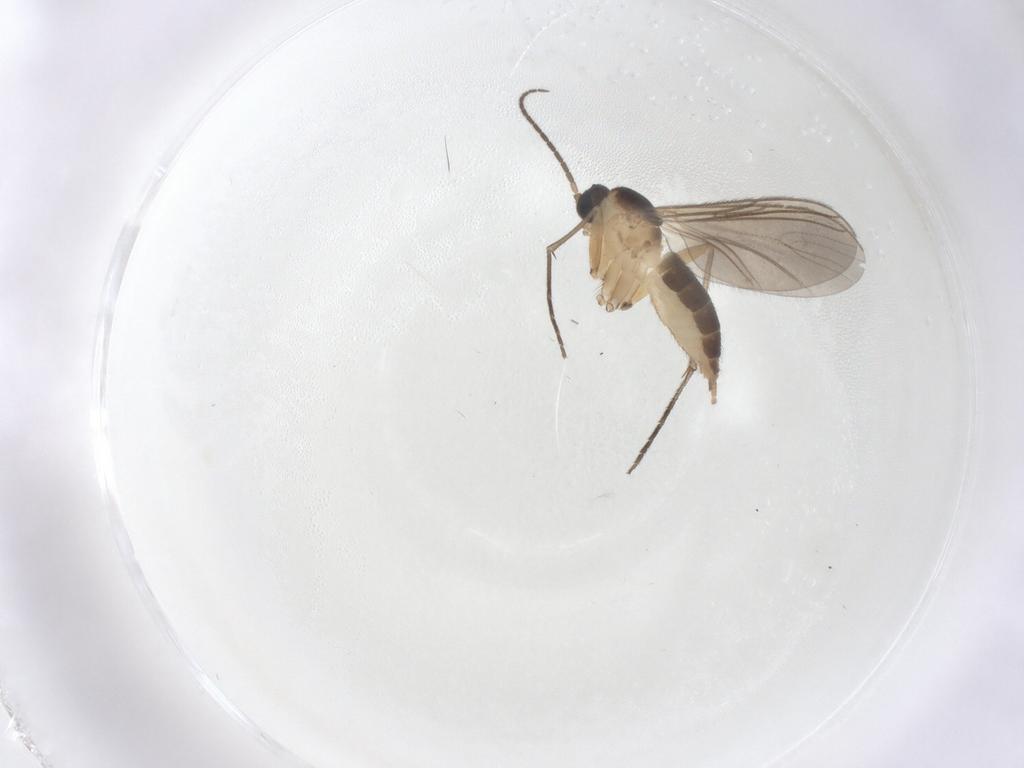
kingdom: Animalia
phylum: Arthropoda
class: Insecta
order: Diptera
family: Sciaridae
